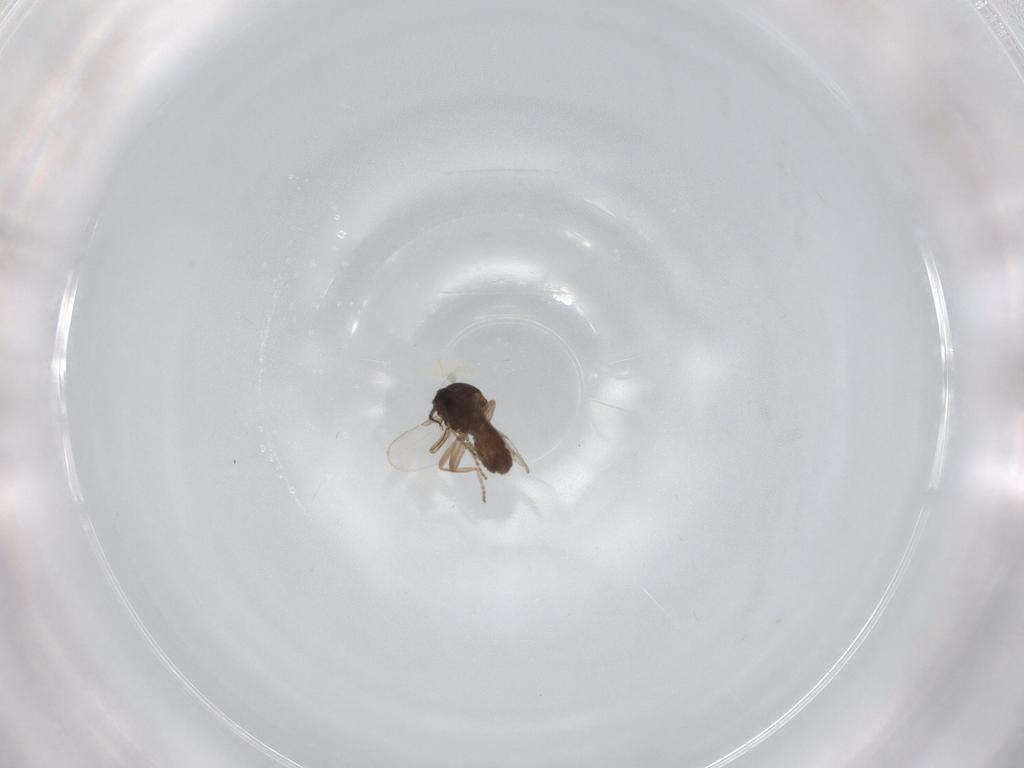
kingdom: Animalia
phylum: Arthropoda
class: Insecta
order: Diptera
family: Ceratopogonidae
